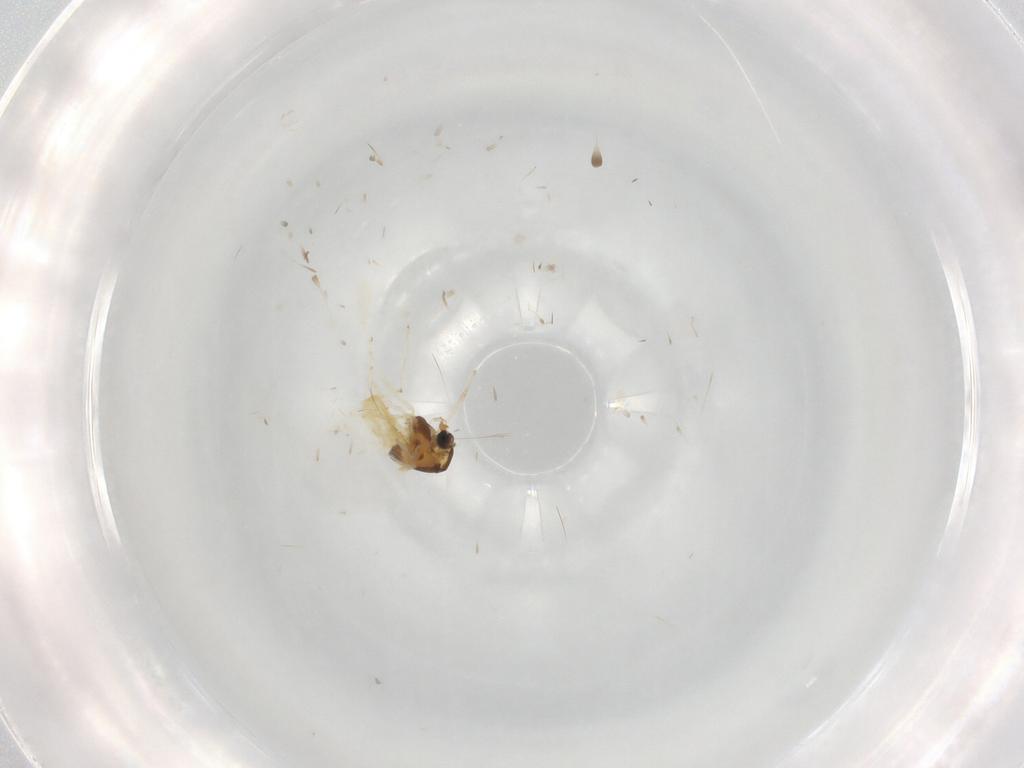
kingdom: Animalia
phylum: Arthropoda
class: Insecta
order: Diptera
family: Chironomidae
